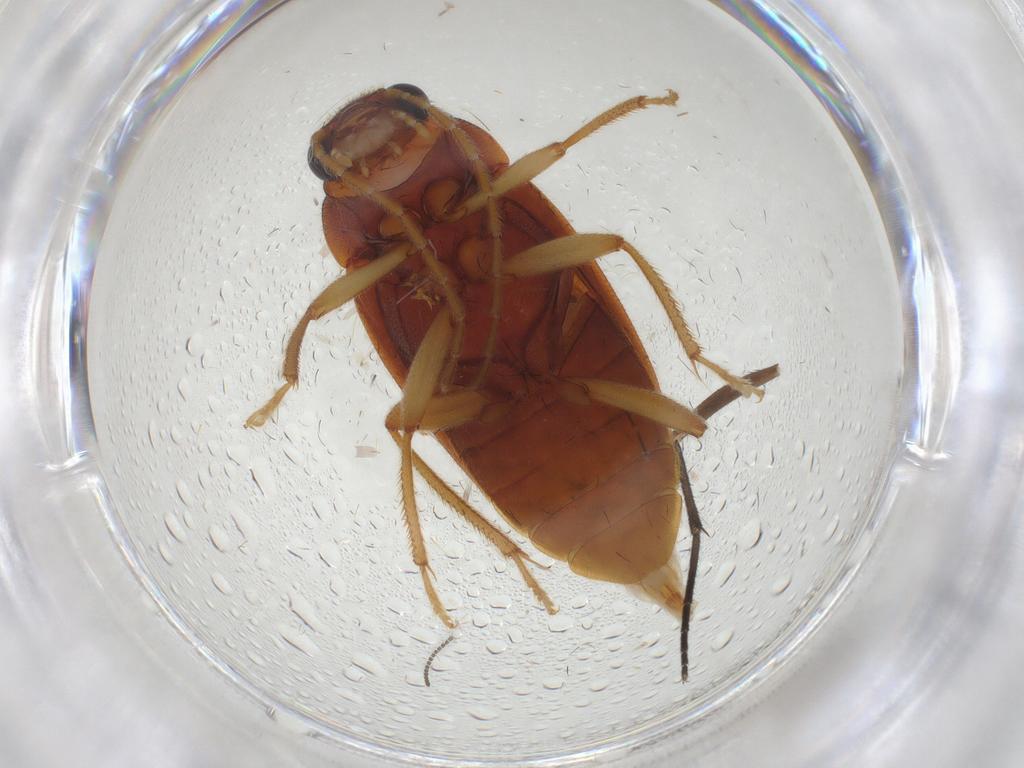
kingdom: Animalia
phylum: Arthropoda
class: Insecta
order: Coleoptera
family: Ptilodactylidae
